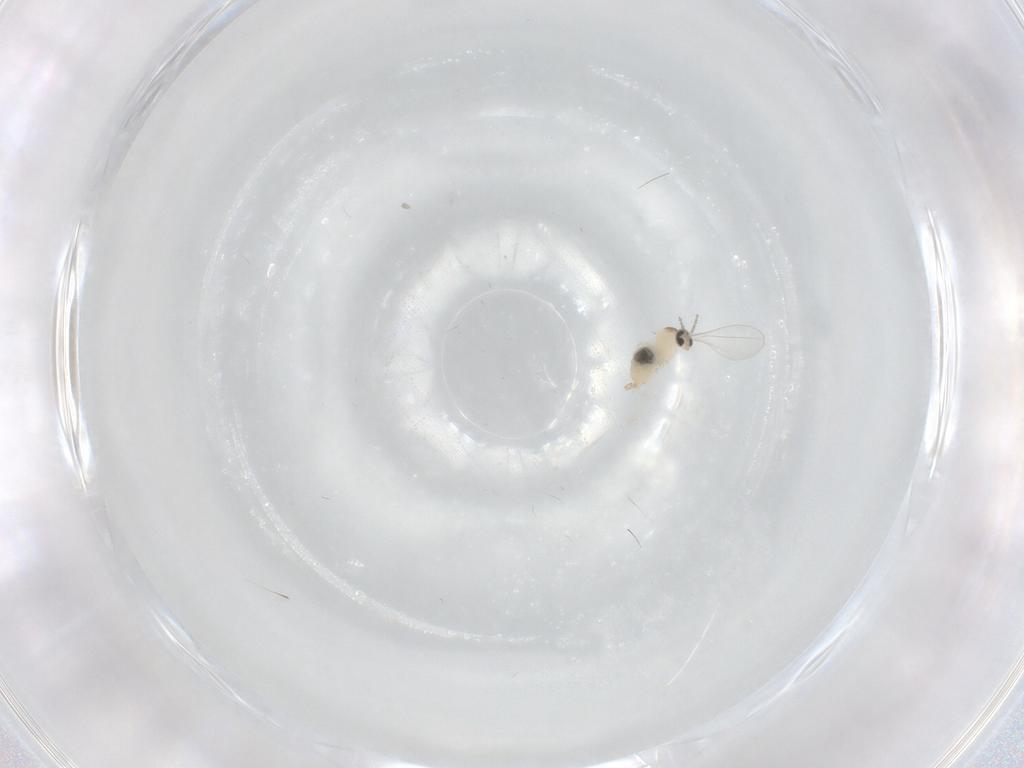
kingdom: Animalia
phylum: Arthropoda
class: Insecta
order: Diptera
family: Cecidomyiidae
